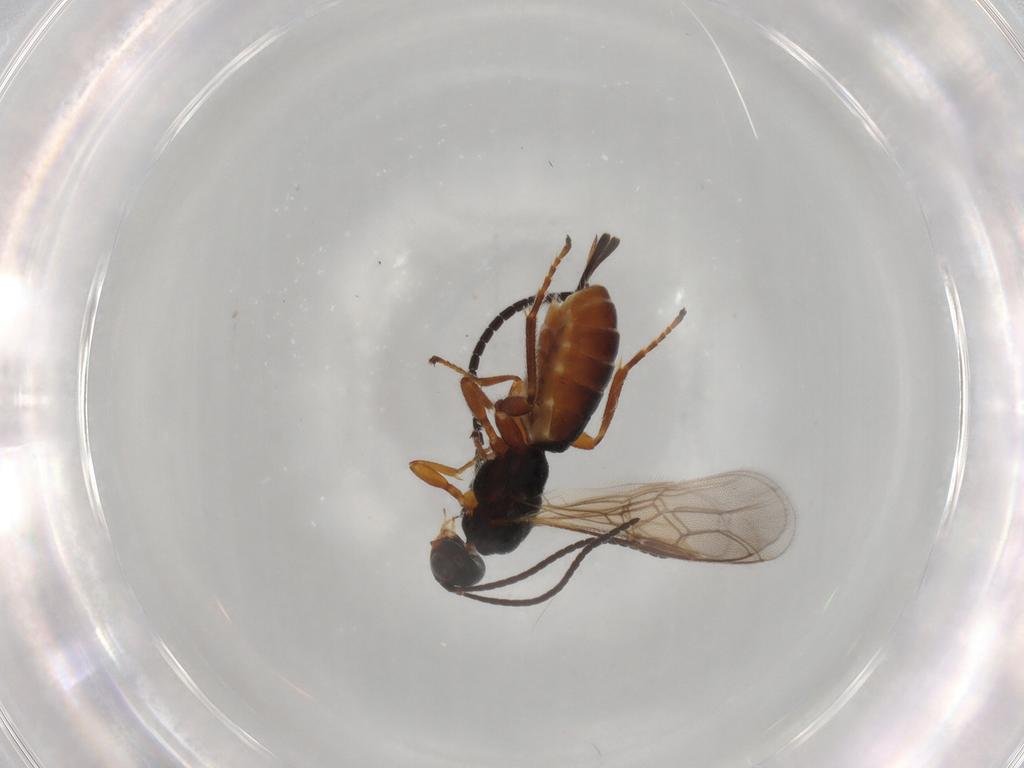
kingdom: Animalia
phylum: Arthropoda
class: Insecta
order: Hymenoptera
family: Braconidae
